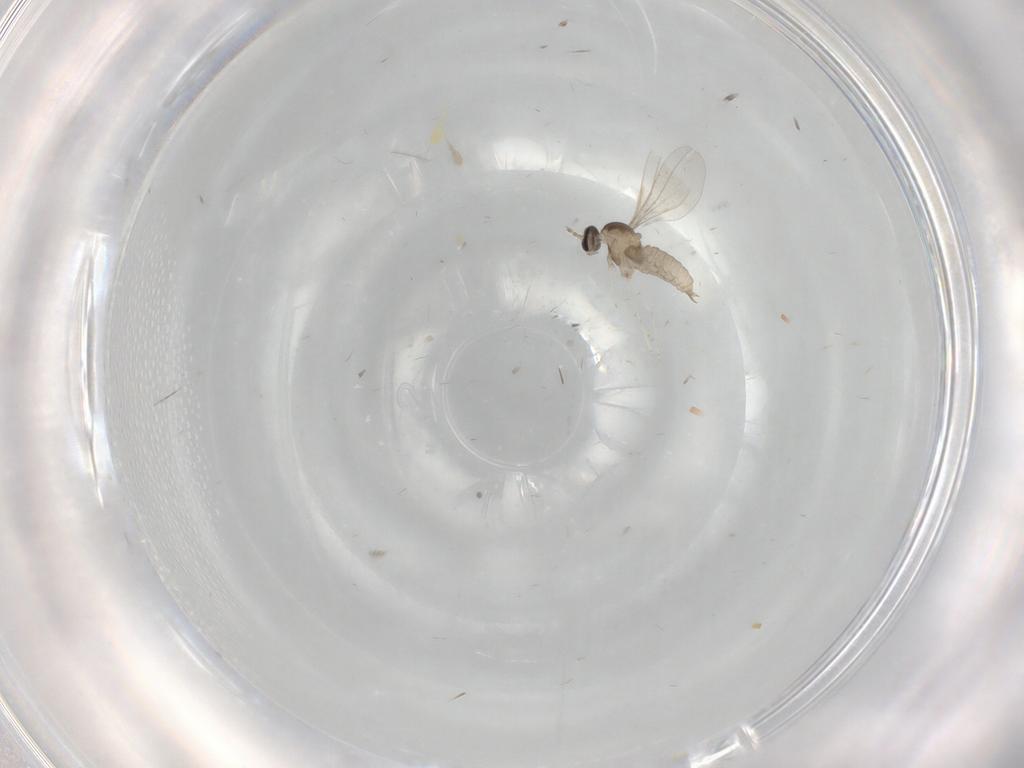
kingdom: Animalia
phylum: Arthropoda
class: Insecta
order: Diptera
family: Cecidomyiidae
